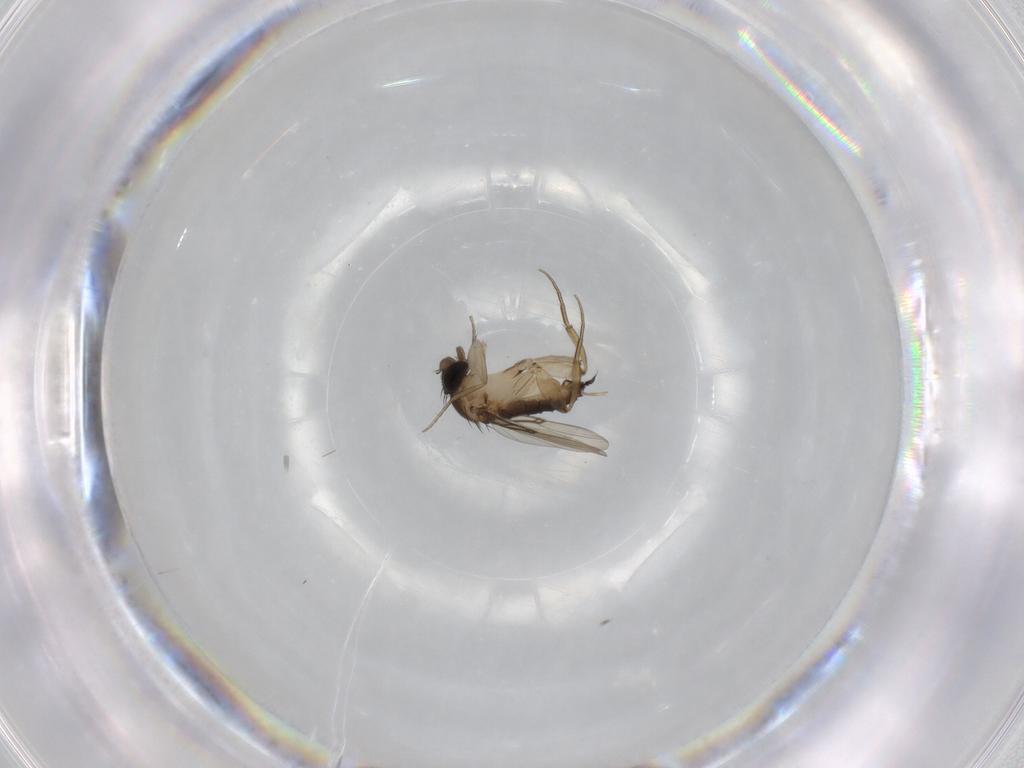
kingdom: Animalia
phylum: Arthropoda
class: Insecta
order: Diptera
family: Phoridae
